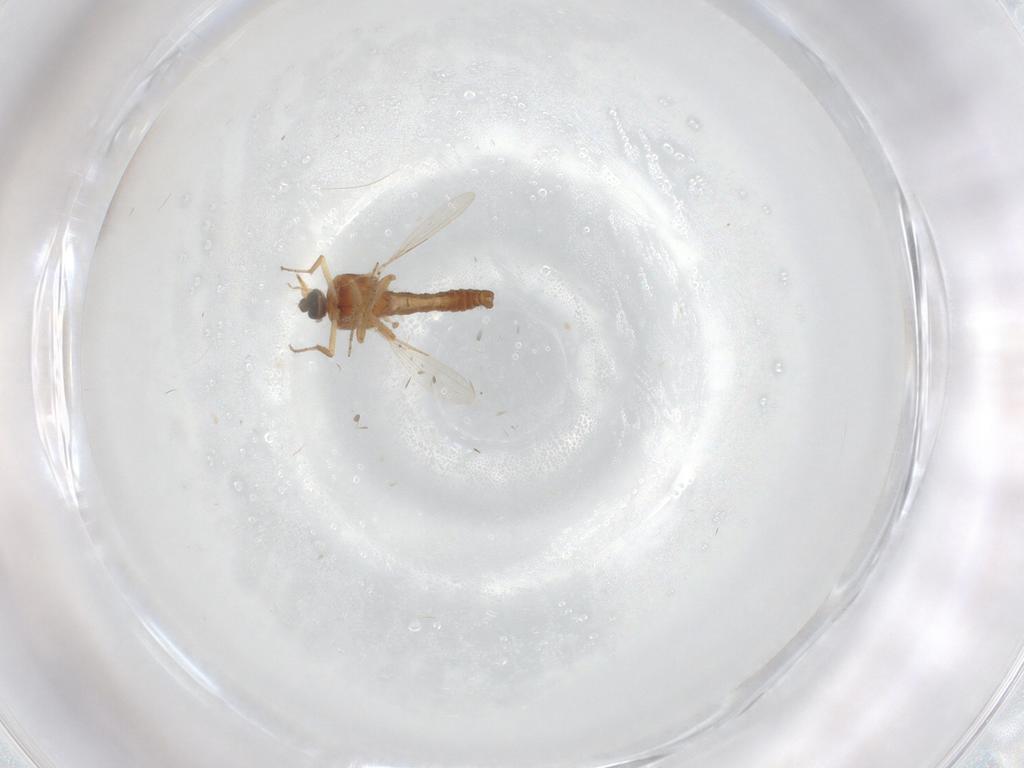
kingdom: Animalia
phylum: Arthropoda
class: Insecta
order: Diptera
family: Ceratopogonidae
